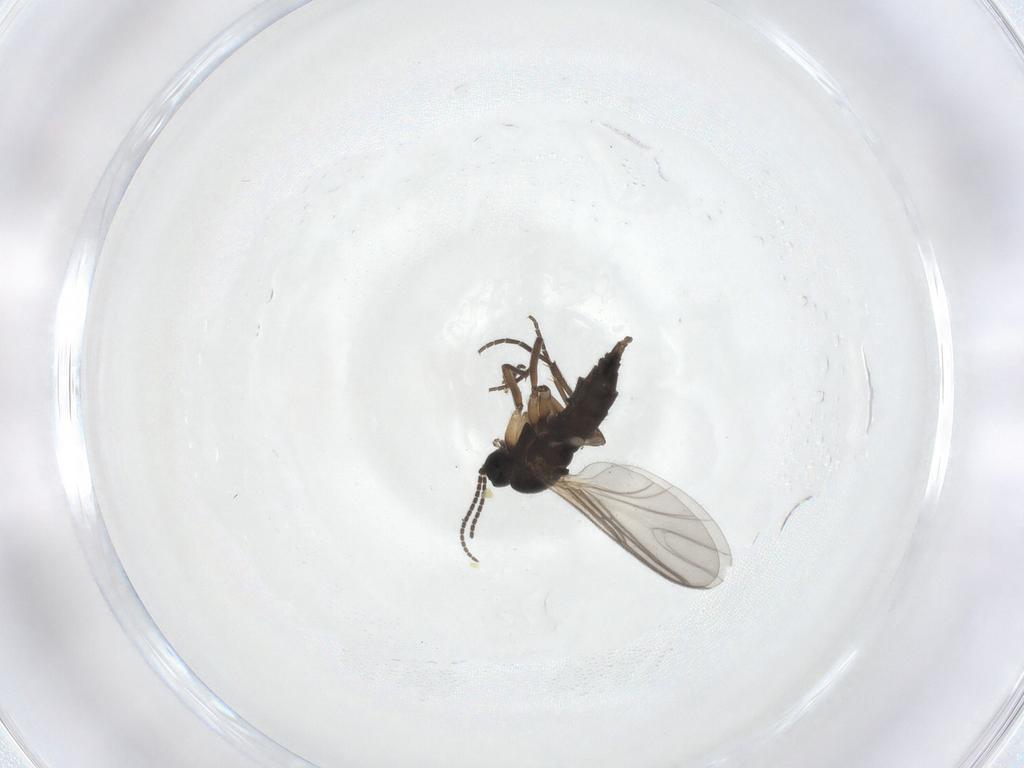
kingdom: Animalia
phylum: Arthropoda
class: Insecta
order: Diptera
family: Sciaridae
